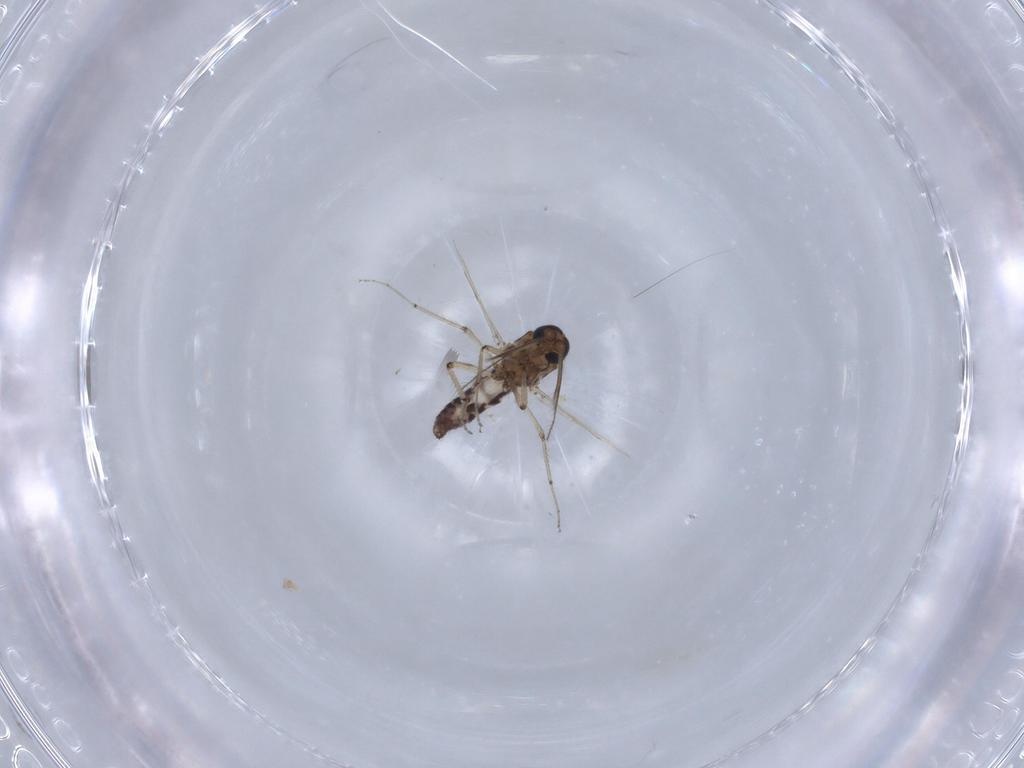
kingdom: Animalia
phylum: Arthropoda
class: Insecta
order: Diptera
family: Ceratopogonidae
